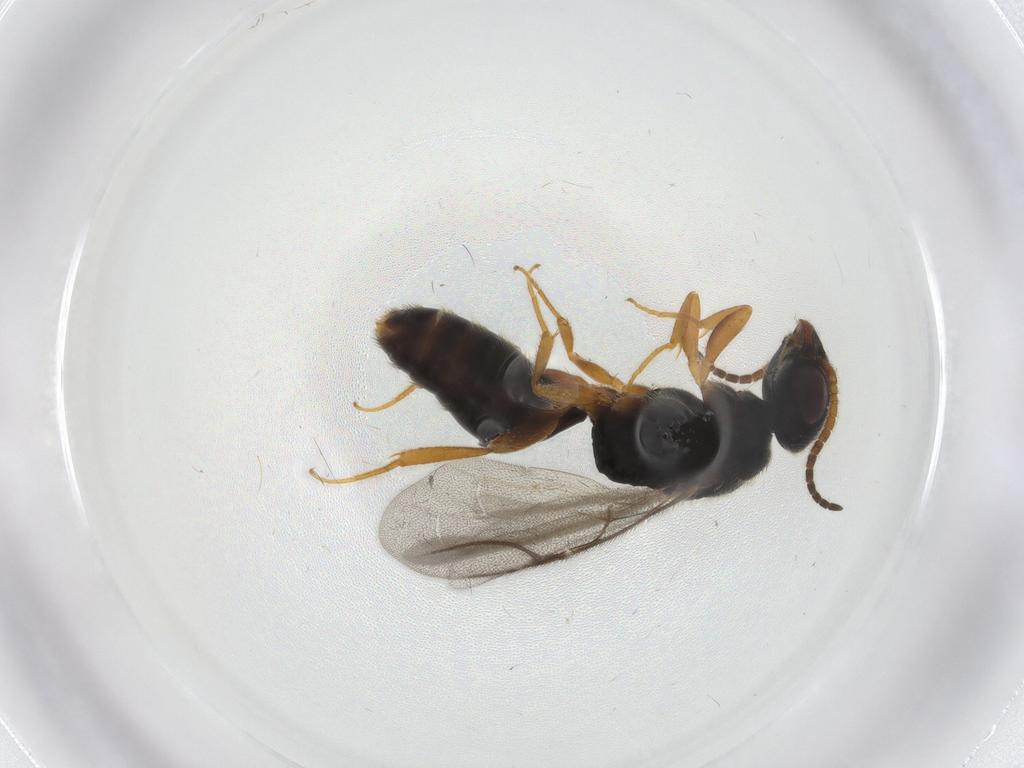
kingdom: Animalia
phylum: Arthropoda
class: Insecta
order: Hymenoptera
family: Bethylidae
